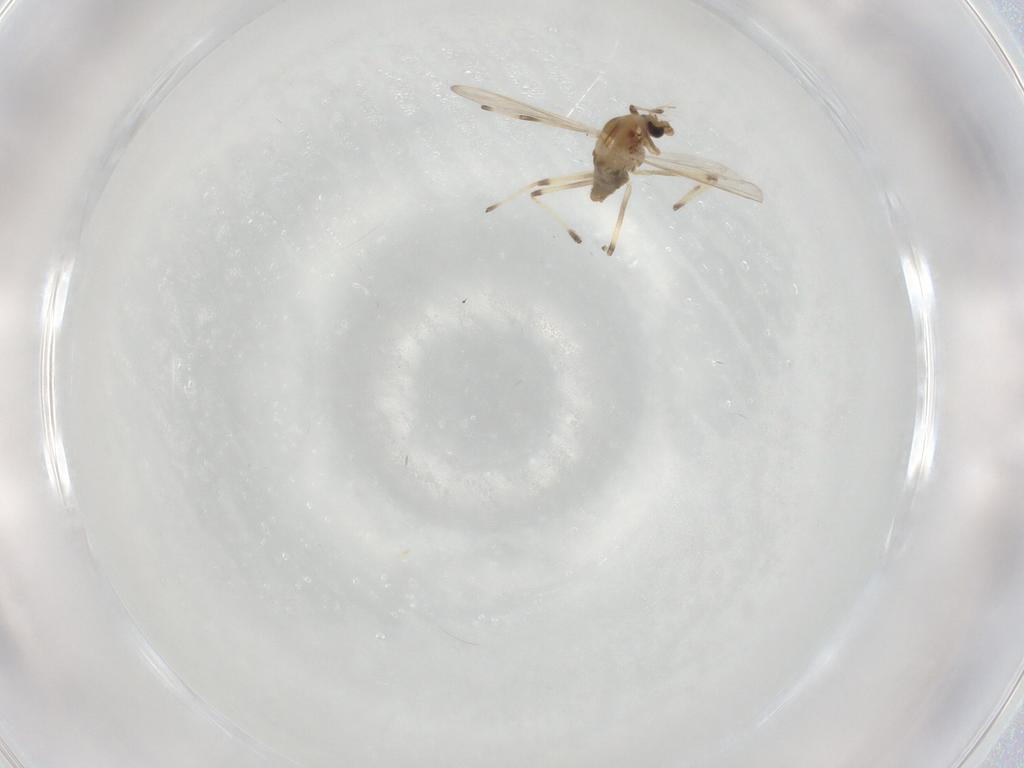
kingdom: Animalia
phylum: Arthropoda
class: Insecta
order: Diptera
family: Chironomidae
